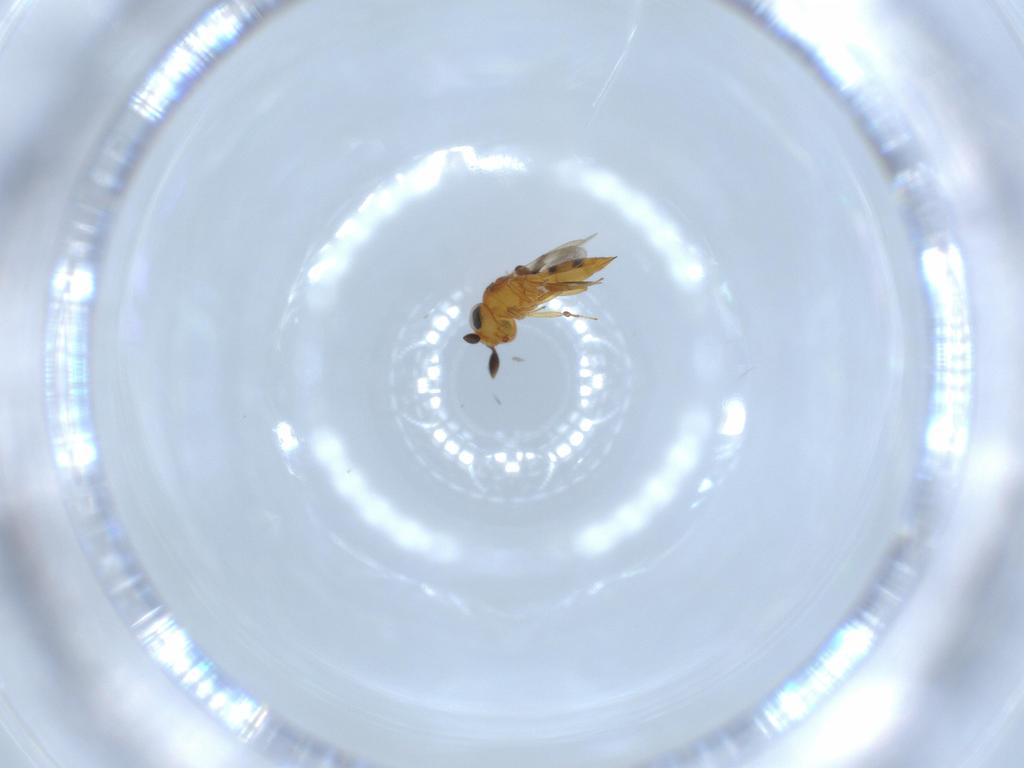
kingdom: Animalia
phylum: Arthropoda
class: Insecta
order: Hymenoptera
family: Scelionidae
